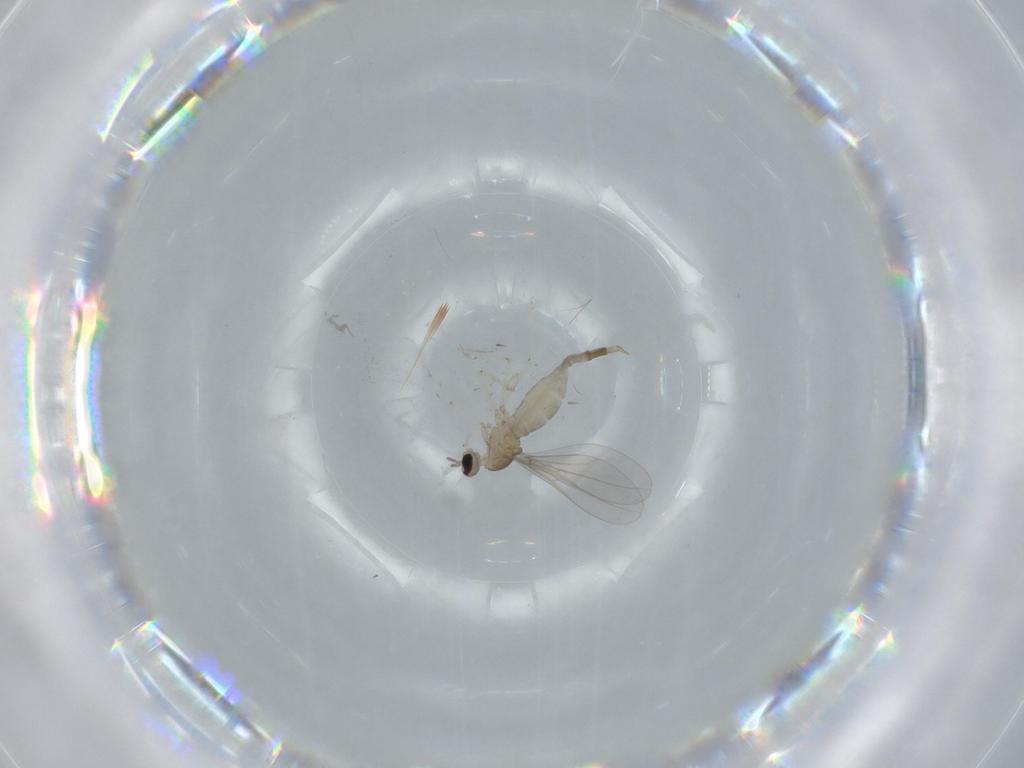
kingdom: Animalia
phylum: Arthropoda
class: Insecta
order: Diptera
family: Cecidomyiidae
